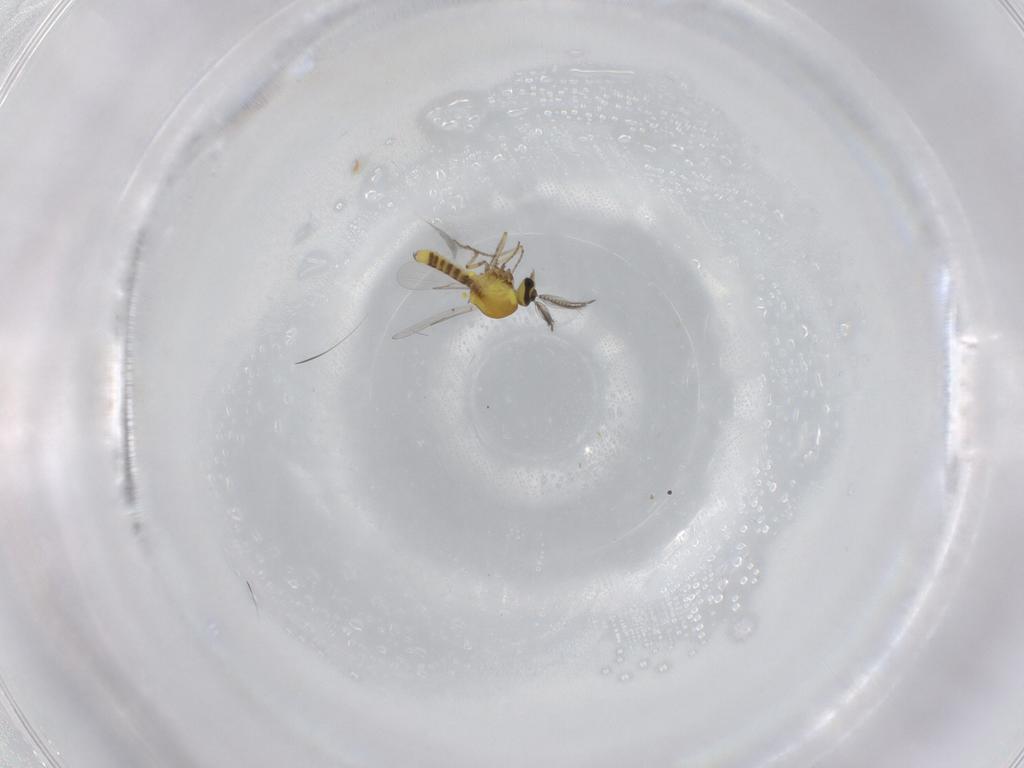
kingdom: Animalia
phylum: Arthropoda
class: Insecta
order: Diptera
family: Ceratopogonidae
